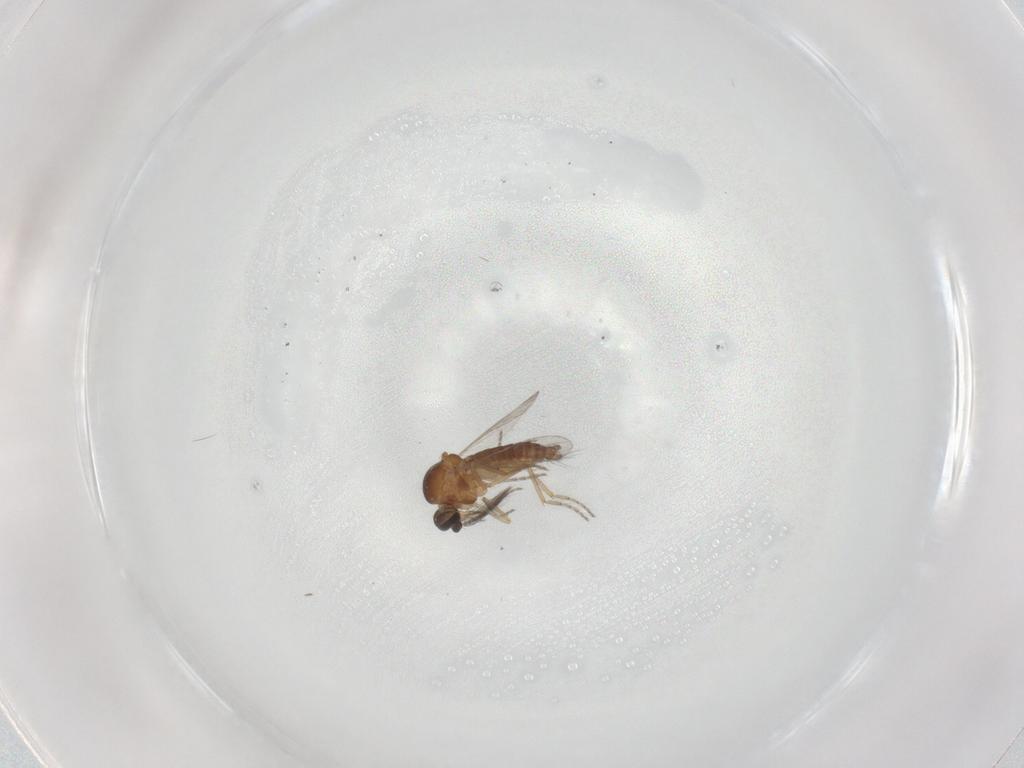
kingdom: Animalia
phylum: Arthropoda
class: Insecta
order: Diptera
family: Ceratopogonidae
